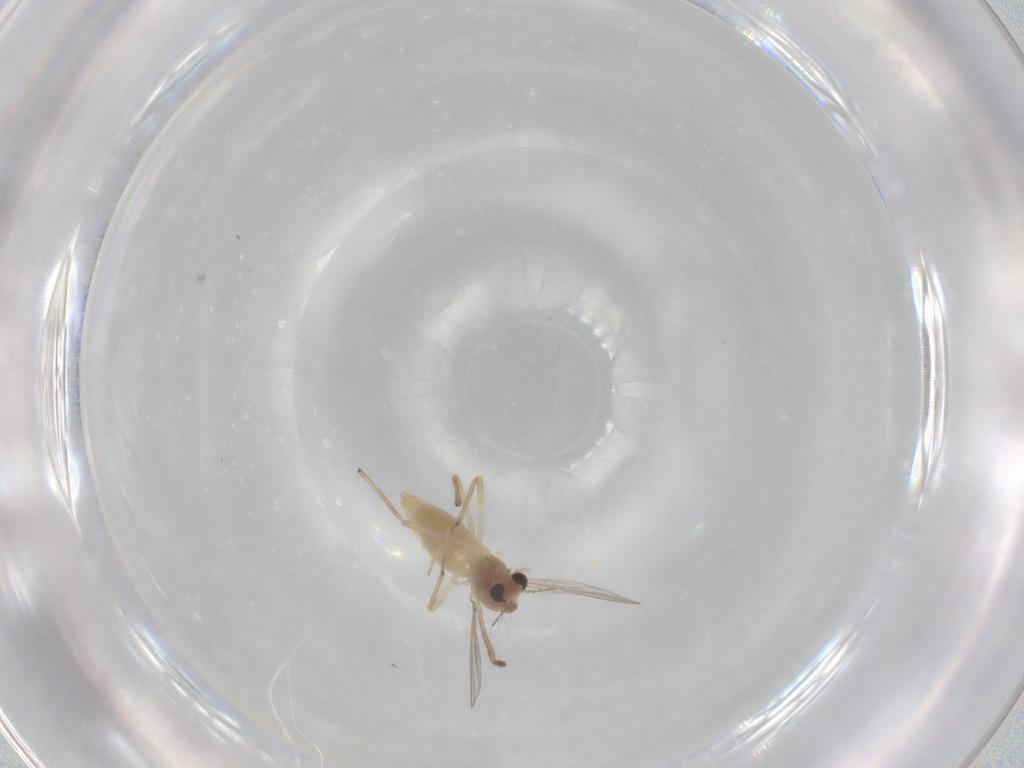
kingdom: Animalia
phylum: Arthropoda
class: Insecta
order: Diptera
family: Chironomidae
